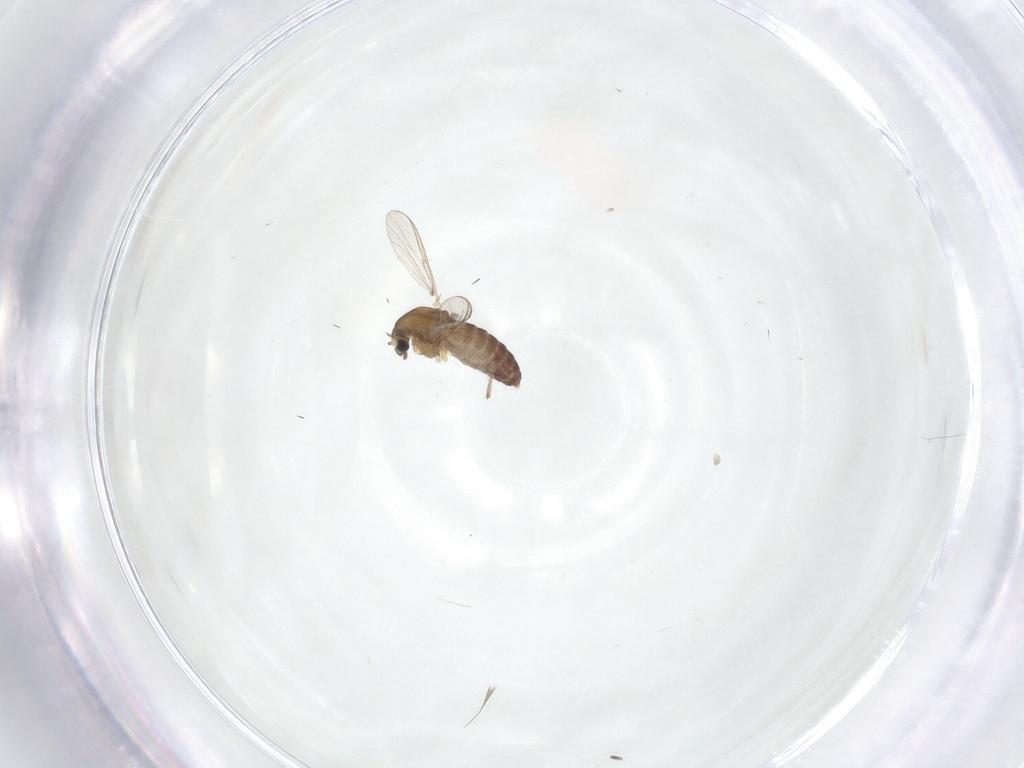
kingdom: Animalia
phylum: Arthropoda
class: Insecta
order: Diptera
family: Chironomidae
